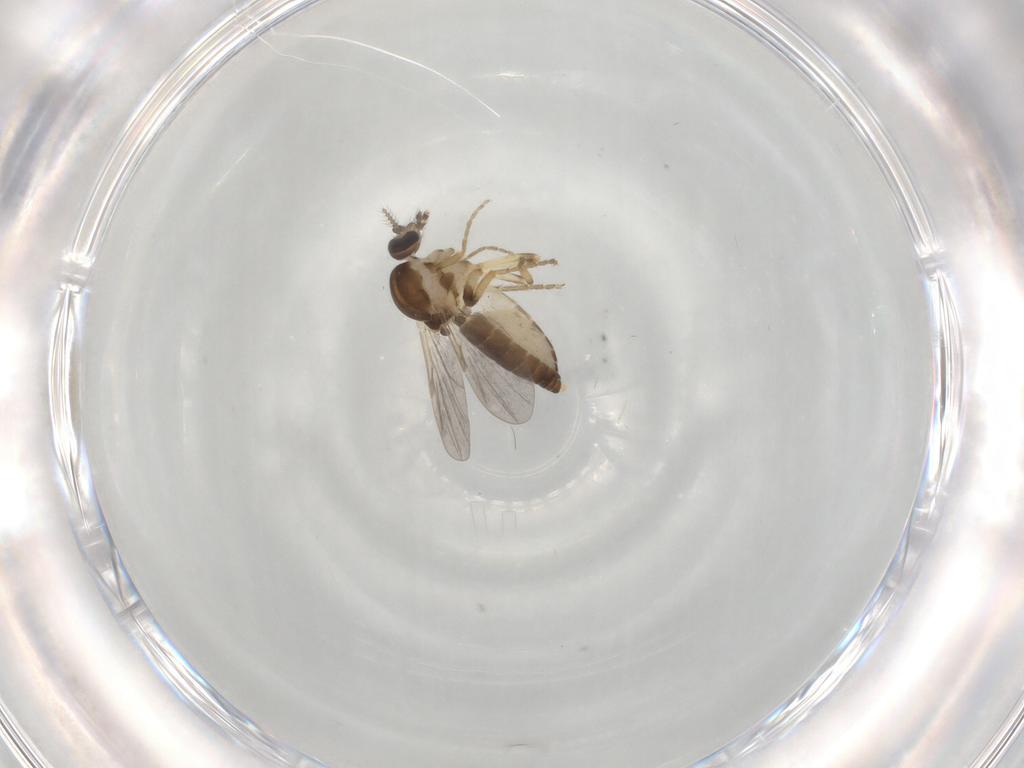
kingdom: Animalia
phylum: Arthropoda
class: Insecta
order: Diptera
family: Ceratopogonidae
